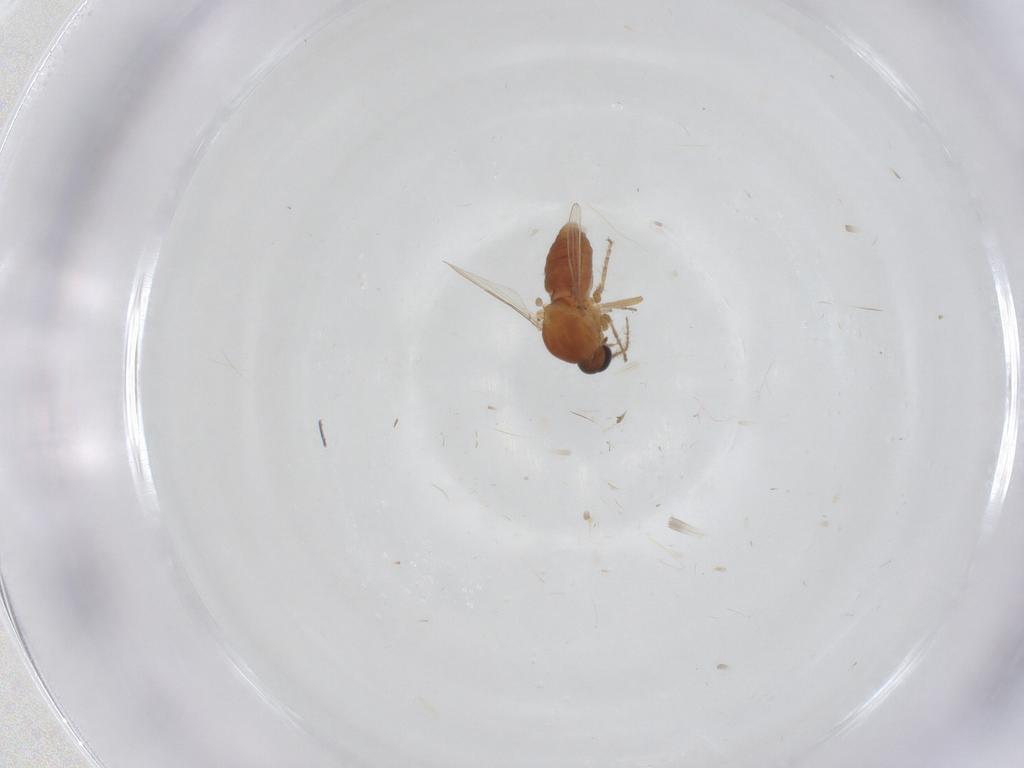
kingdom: Animalia
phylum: Arthropoda
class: Insecta
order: Diptera
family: Ceratopogonidae
